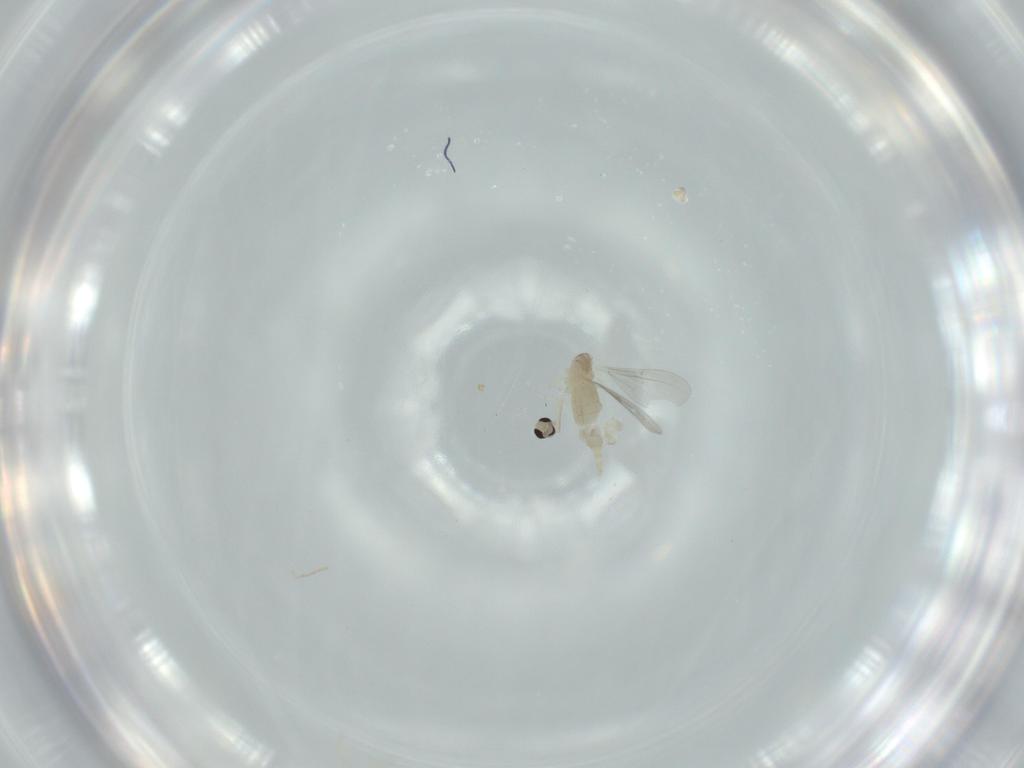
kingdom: Animalia
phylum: Arthropoda
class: Insecta
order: Diptera
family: Cecidomyiidae
